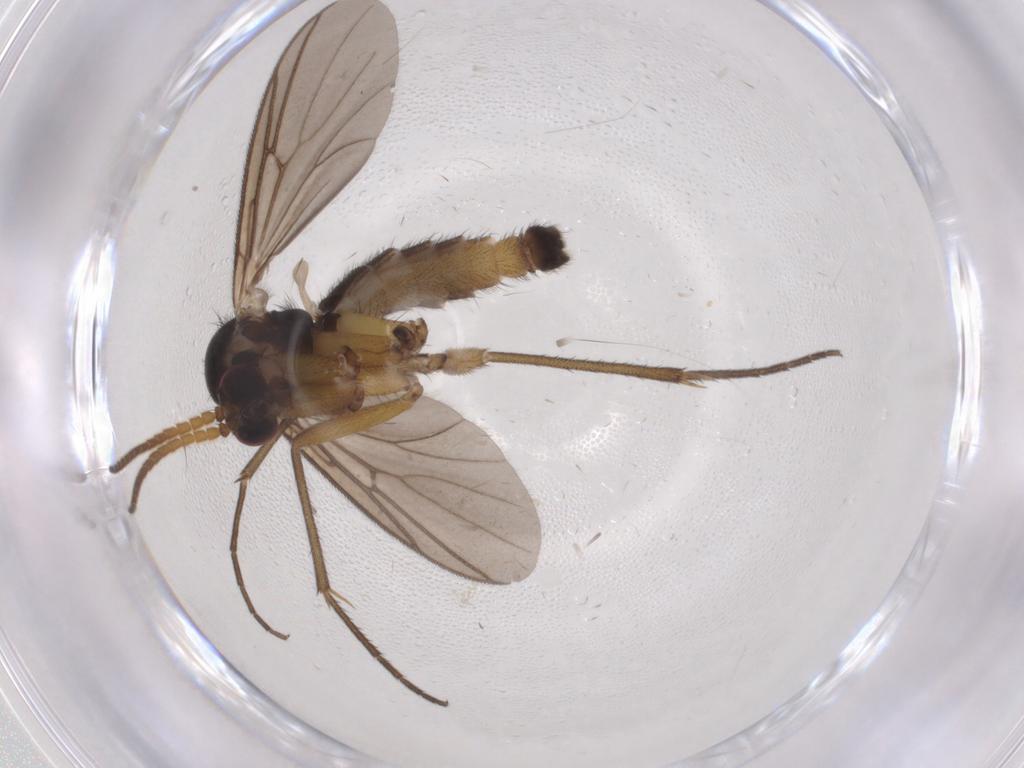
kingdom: Animalia
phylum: Arthropoda
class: Insecta
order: Diptera
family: Mycetophilidae
